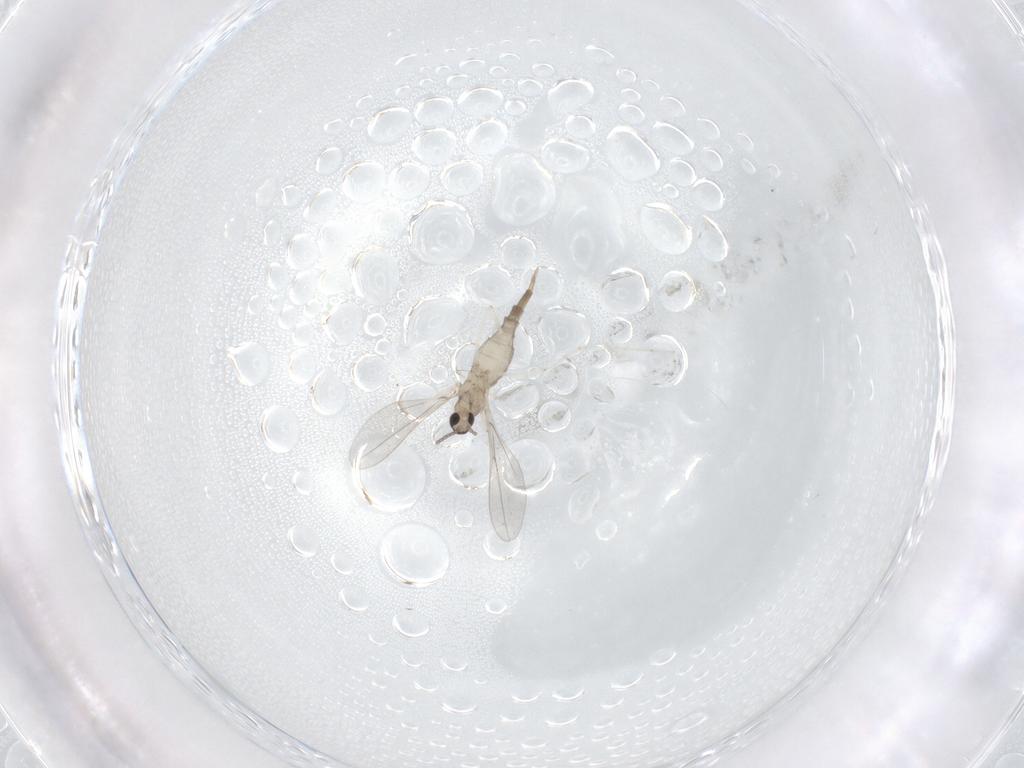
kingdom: Animalia
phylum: Arthropoda
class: Insecta
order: Diptera
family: Cecidomyiidae
